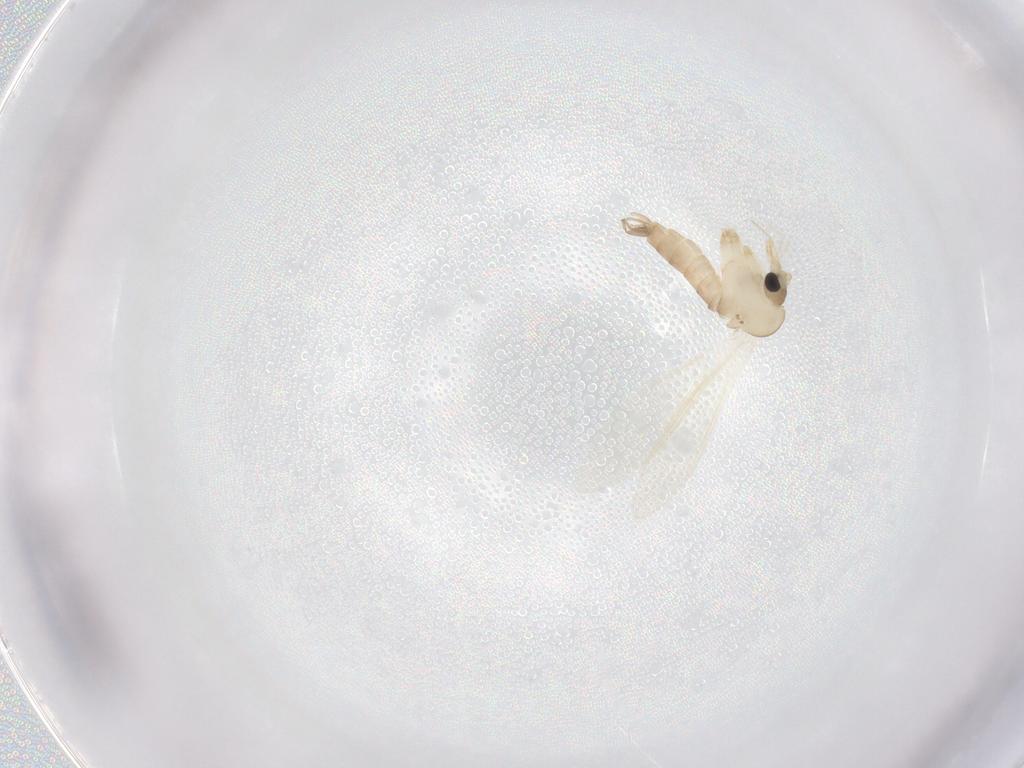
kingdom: Animalia
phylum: Arthropoda
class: Insecta
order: Diptera
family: Psychodidae
